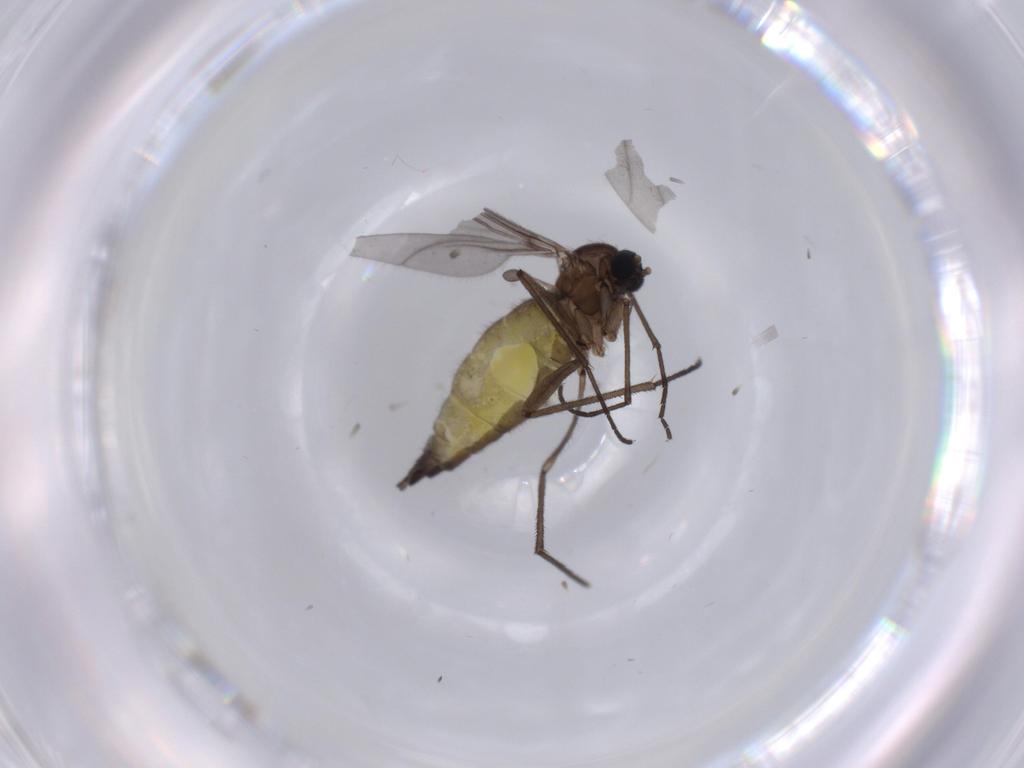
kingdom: Animalia
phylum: Arthropoda
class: Insecta
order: Diptera
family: Sciaridae
